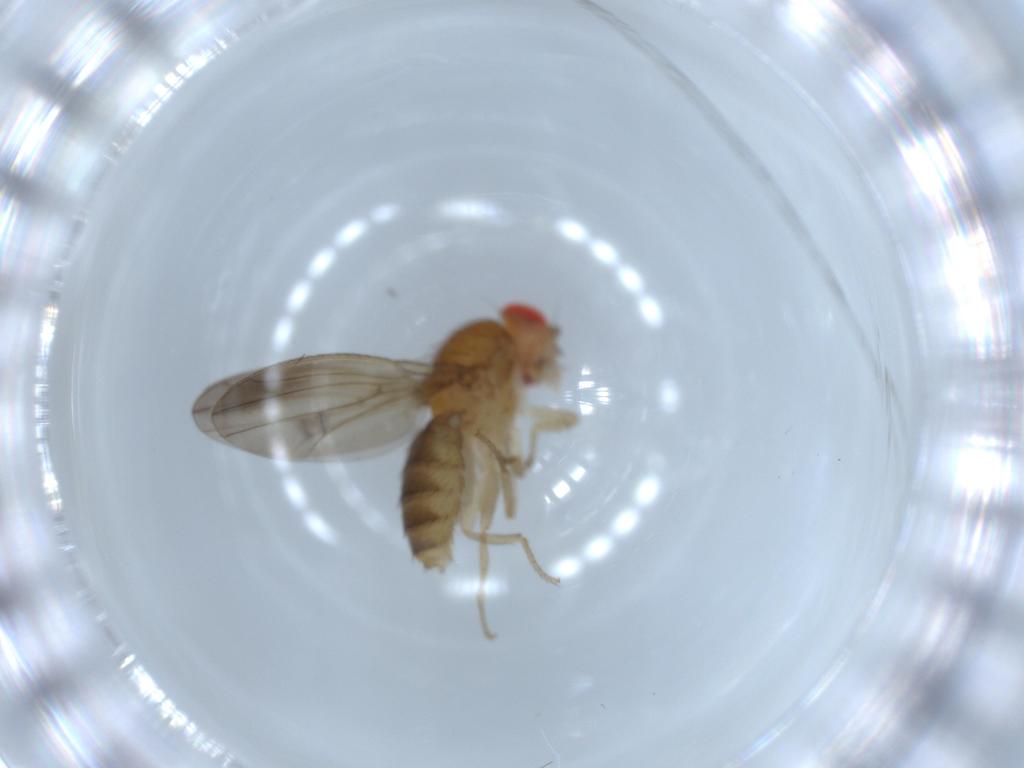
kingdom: Animalia
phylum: Arthropoda
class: Insecta
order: Diptera
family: Drosophilidae
